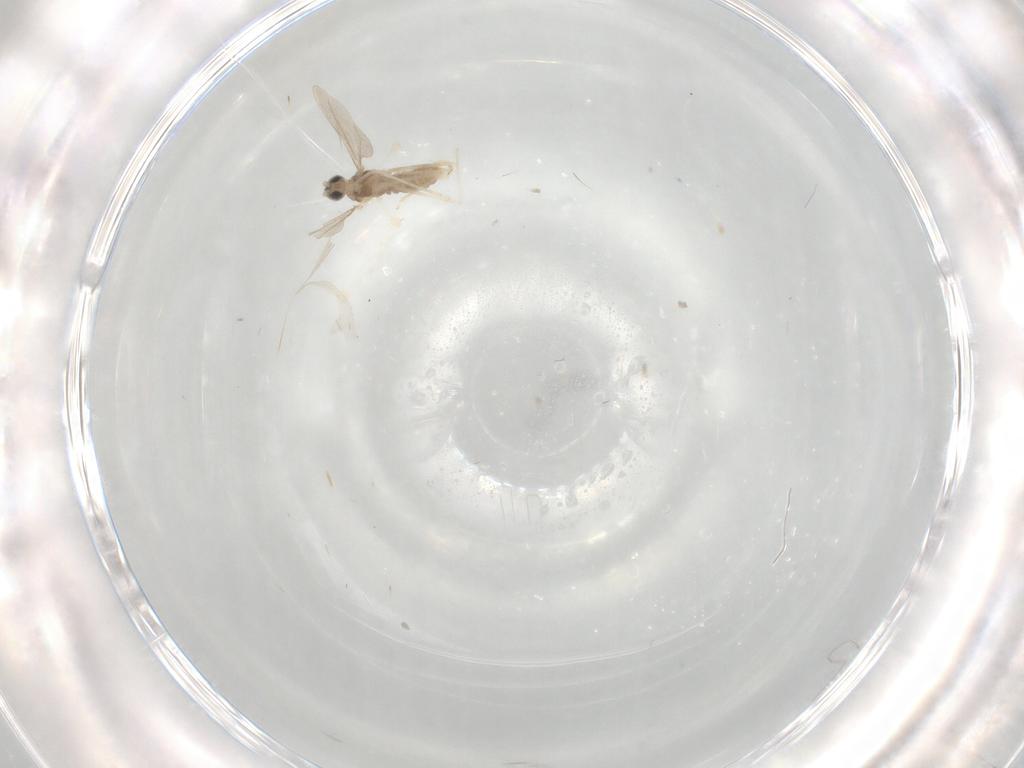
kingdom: Animalia
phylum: Arthropoda
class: Insecta
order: Diptera
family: Cecidomyiidae
